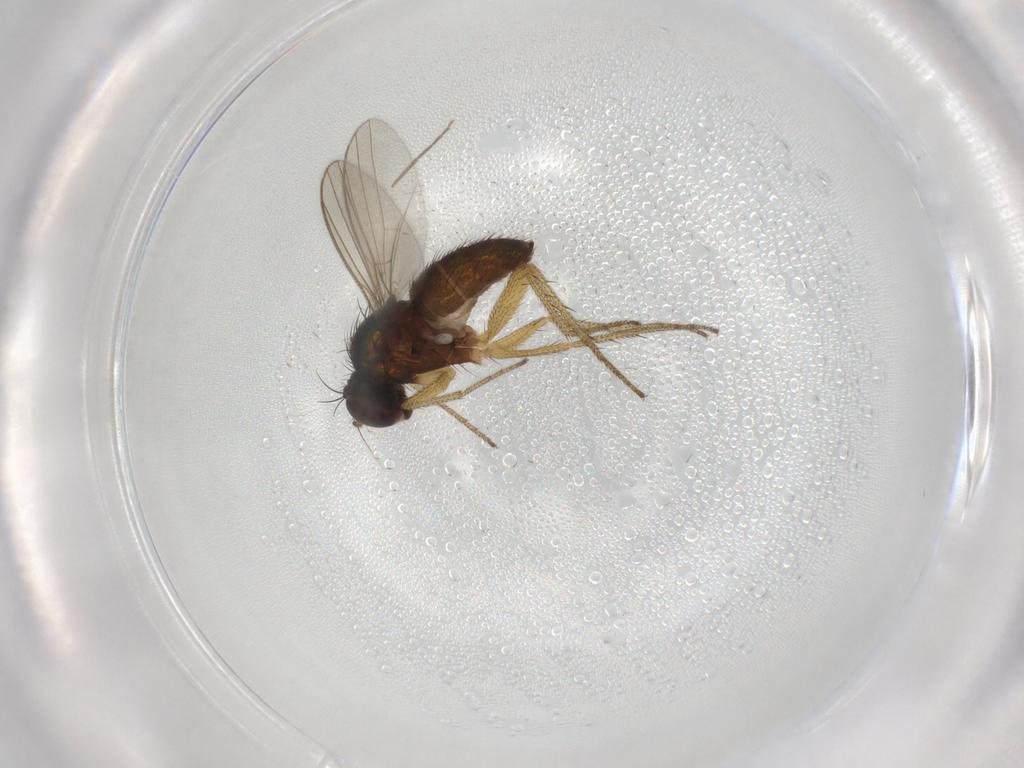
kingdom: Animalia
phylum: Arthropoda
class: Insecta
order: Diptera
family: Dolichopodidae
